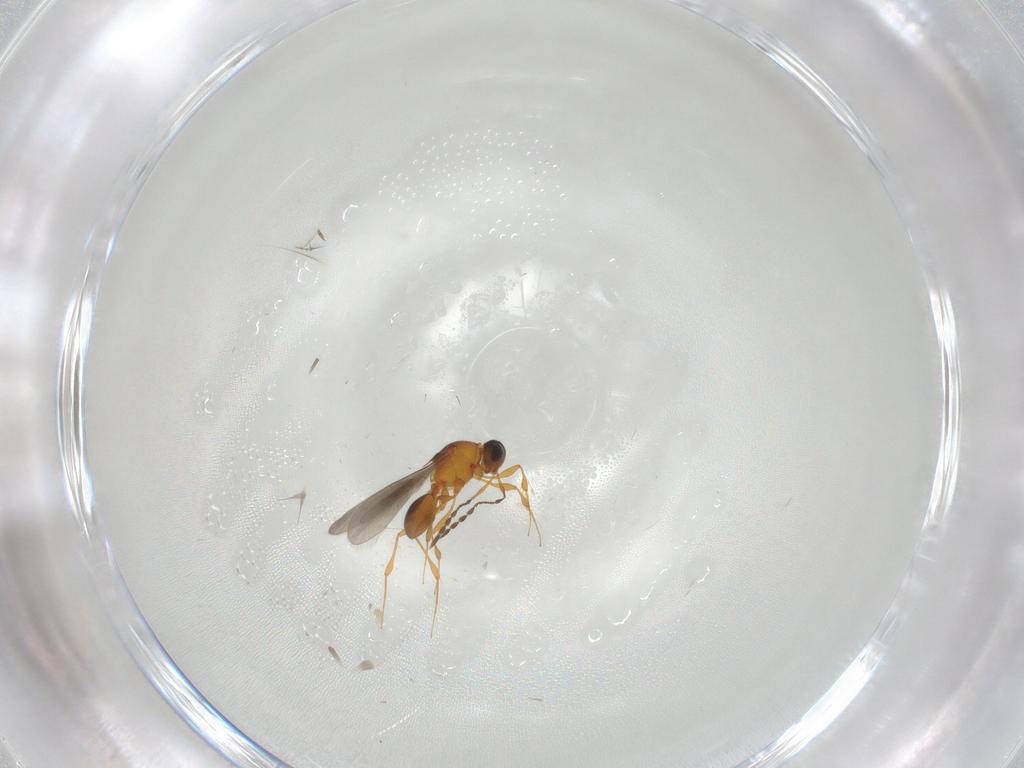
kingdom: Animalia
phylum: Arthropoda
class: Insecta
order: Hymenoptera
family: Platygastridae
